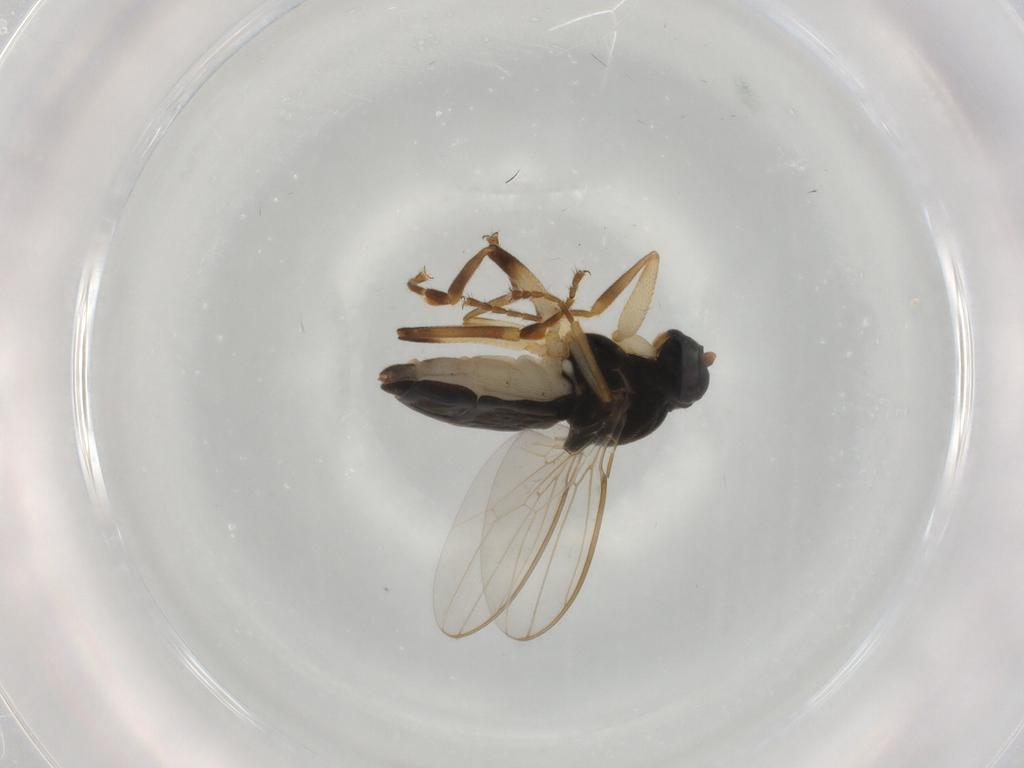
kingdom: Animalia
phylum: Arthropoda
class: Insecta
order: Diptera
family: Sphaeroceridae
